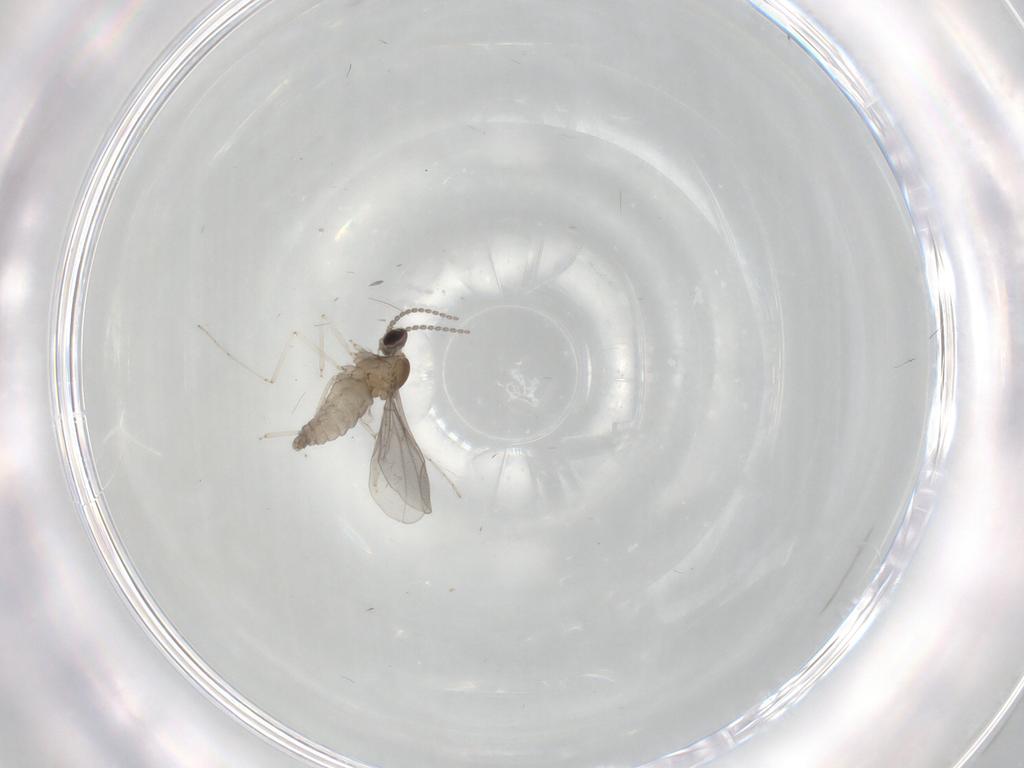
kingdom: Animalia
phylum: Arthropoda
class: Insecta
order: Diptera
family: Cecidomyiidae
